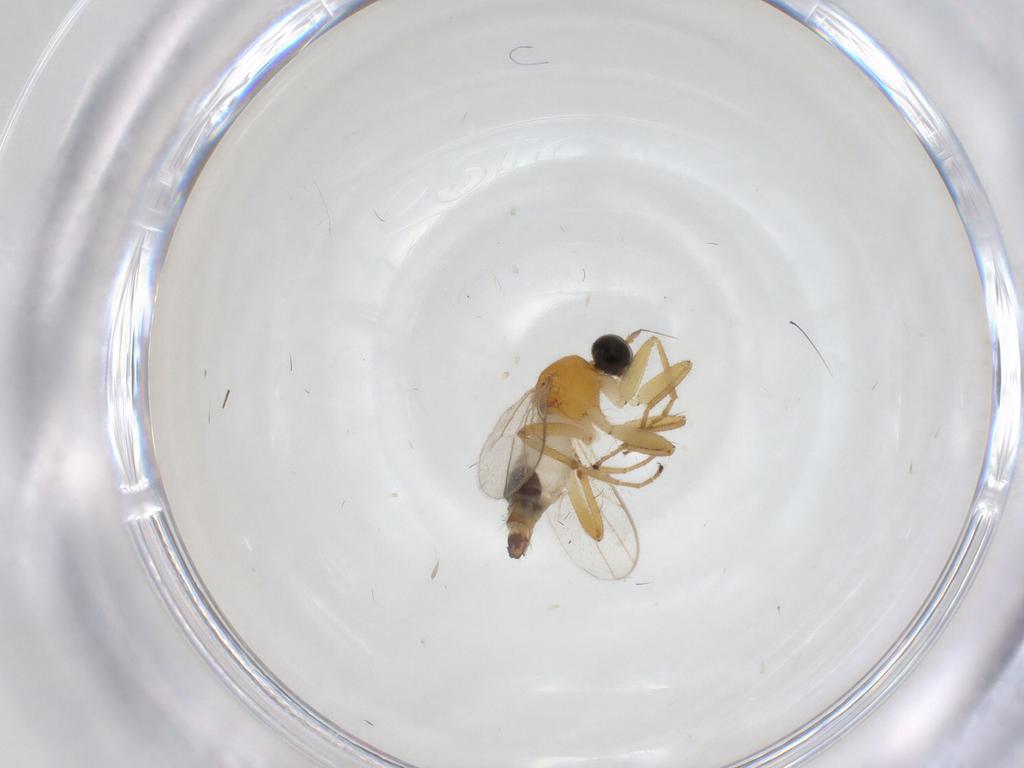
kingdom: Animalia
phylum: Arthropoda
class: Insecta
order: Diptera
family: Hybotidae
